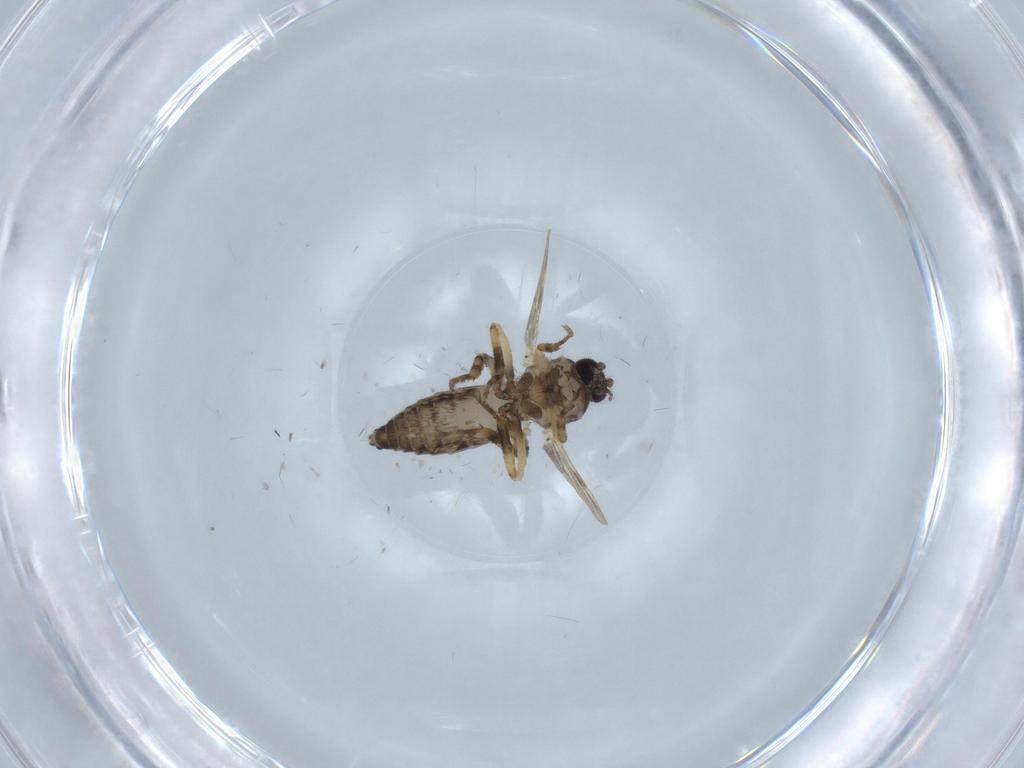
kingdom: Animalia
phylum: Arthropoda
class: Insecta
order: Diptera
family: Ceratopogonidae
